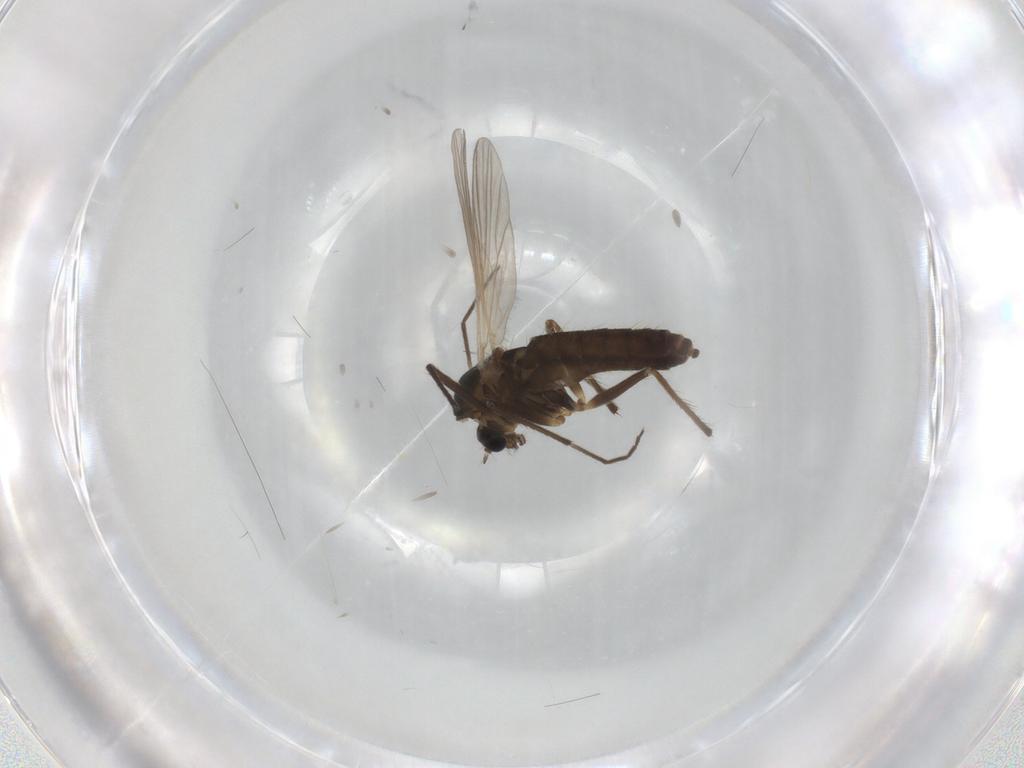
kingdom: Animalia
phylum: Arthropoda
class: Insecta
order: Diptera
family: Chironomidae
